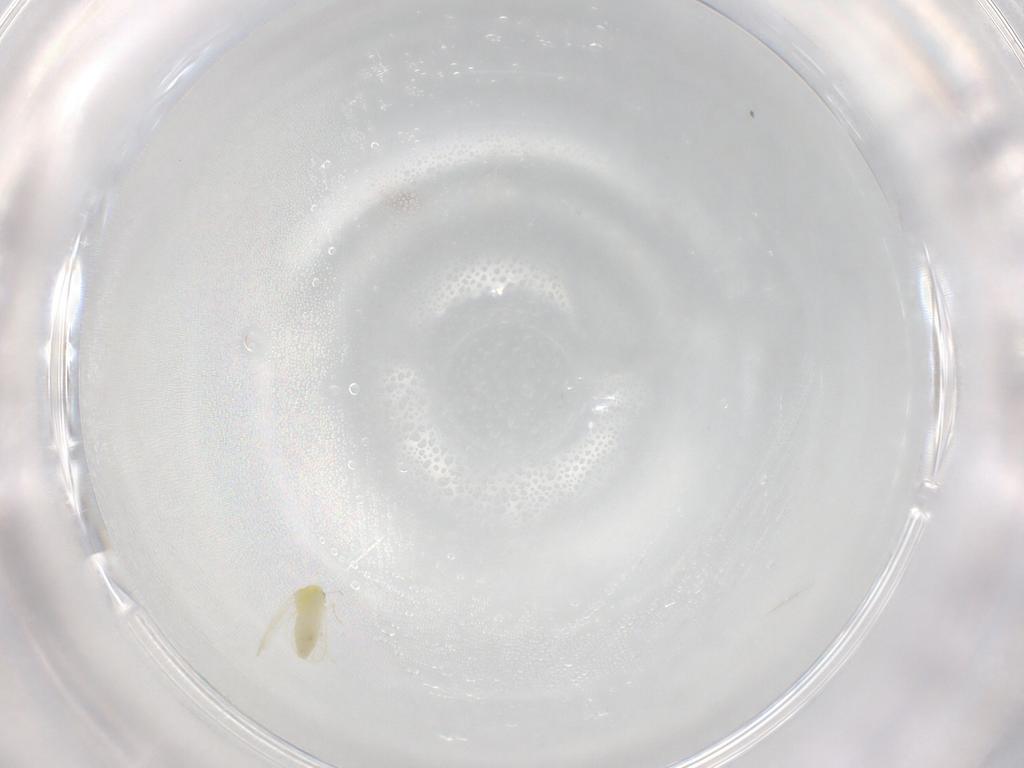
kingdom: Animalia
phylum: Arthropoda
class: Insecta
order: Hemiptera
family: Aleyrodidae
